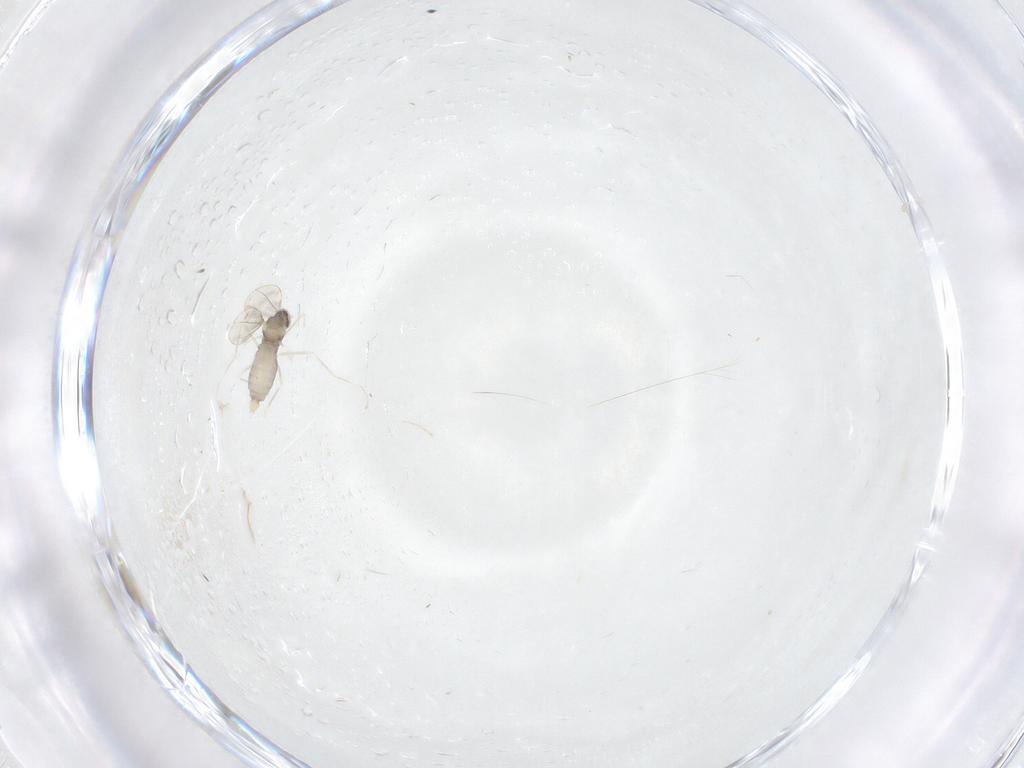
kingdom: Animalia
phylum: Arthropoda
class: Insecta
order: Diptera
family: Cecidomyiidae
